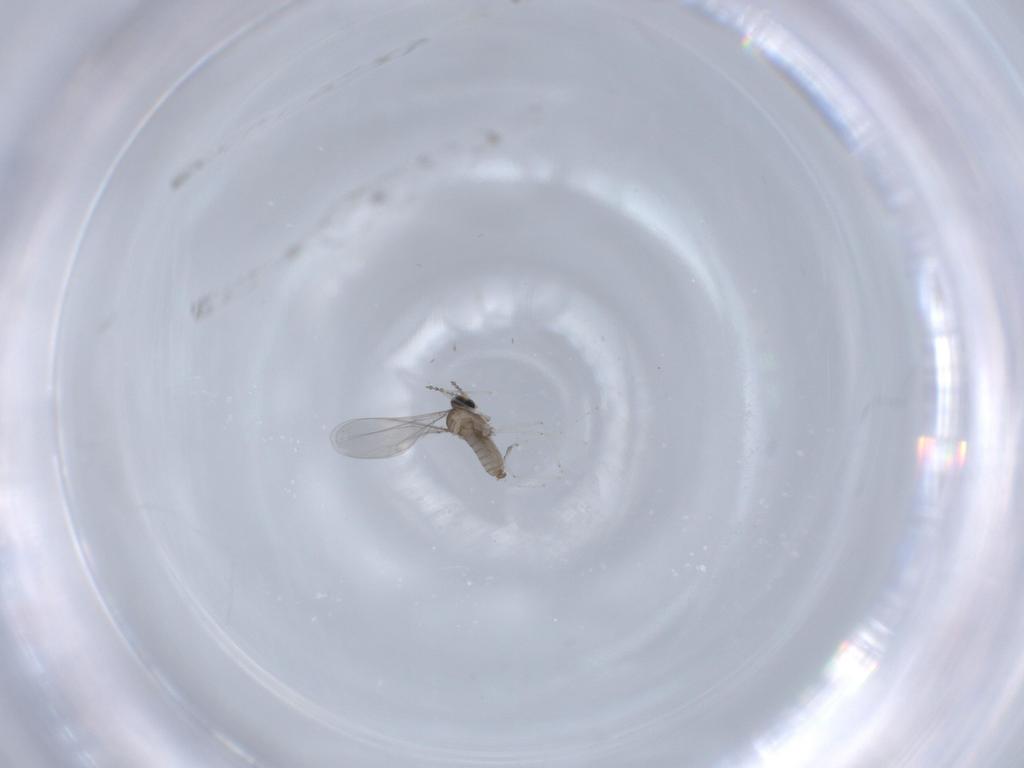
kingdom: Animalia
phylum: Arthropoda
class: Insecta
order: Diptera
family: Cecidomyiidae
